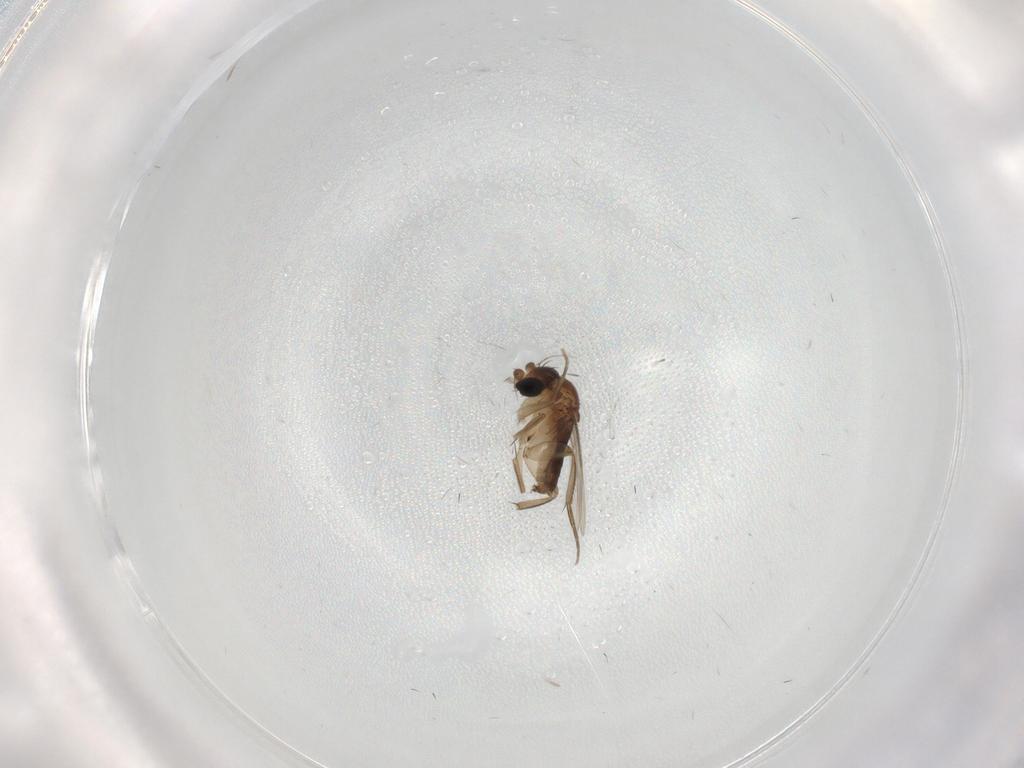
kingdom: Animalia
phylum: Arthropoda
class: Insecta
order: Diptera
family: Phoridae
